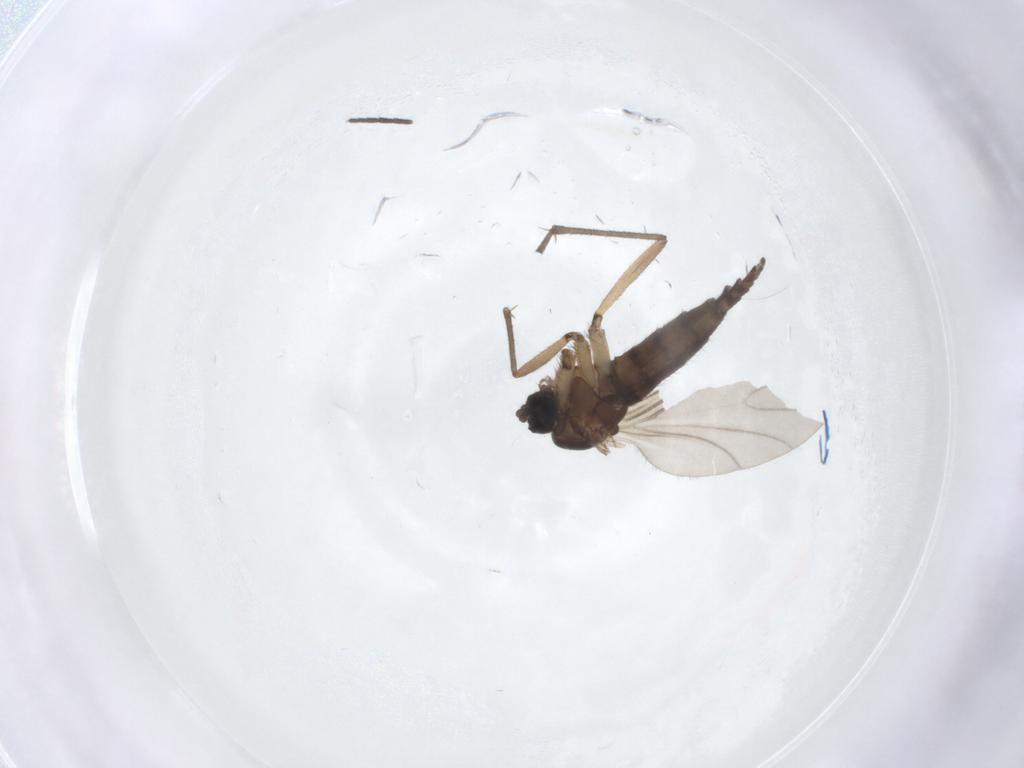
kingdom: Animalia
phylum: Arthropoda
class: Insecta
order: Diptera
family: Sciaridae
